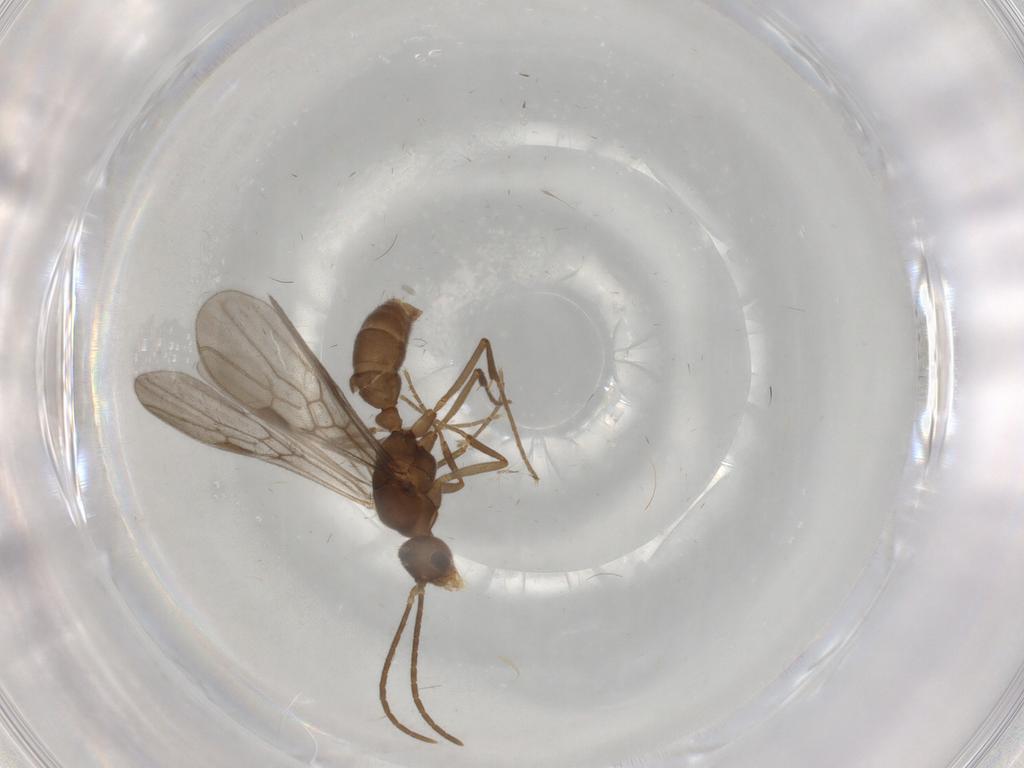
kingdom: Animalia
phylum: Arthropoda
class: Insecta
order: Hymenoptera
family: Formicidae
